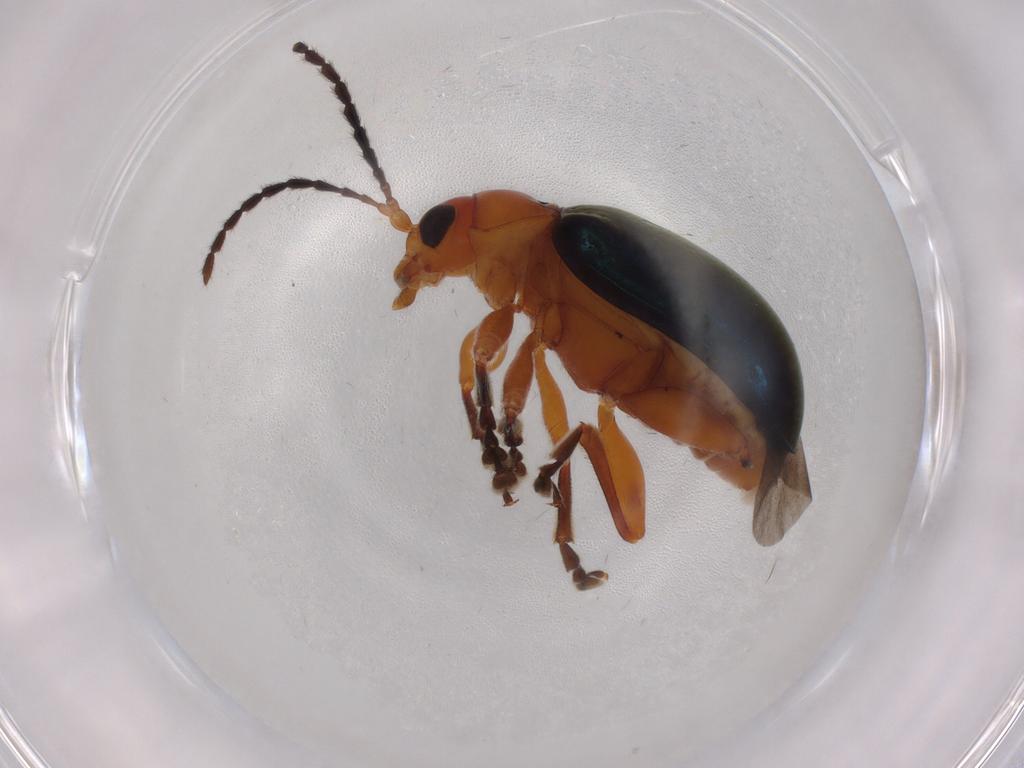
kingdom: Animalia
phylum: Arthropoda
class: Insecta
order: Coleoptera
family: Chrysomelidae
